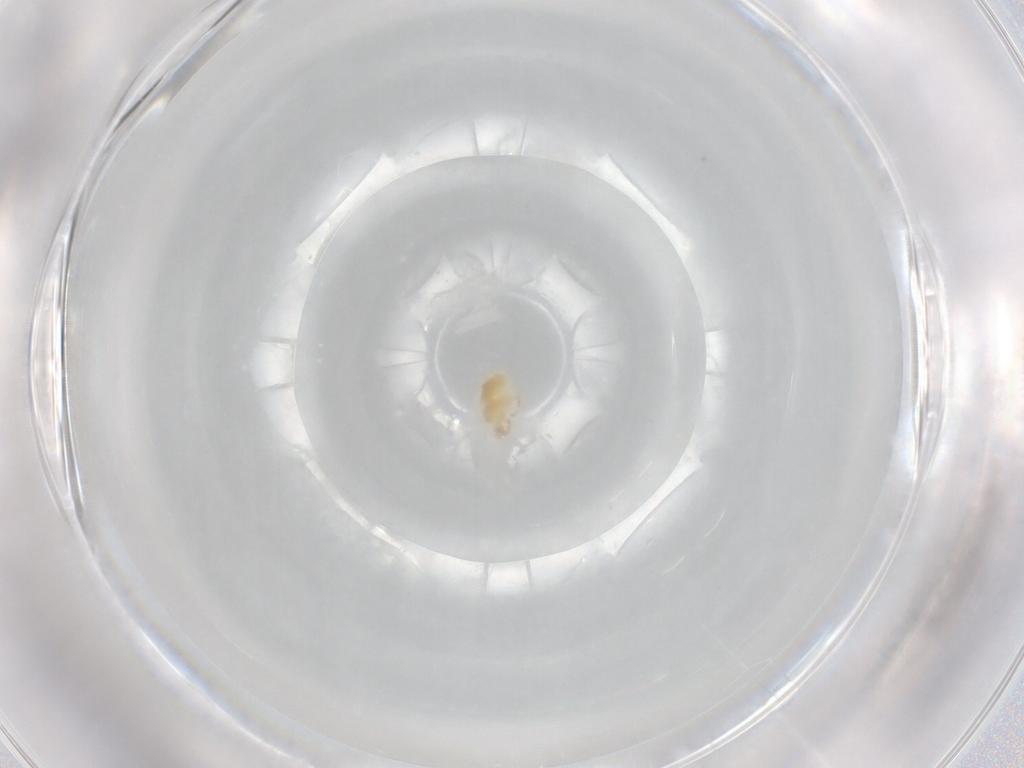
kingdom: Animalia
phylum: Arthropoda
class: Arachnida
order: Trombidiformes
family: Stigmaeidae
